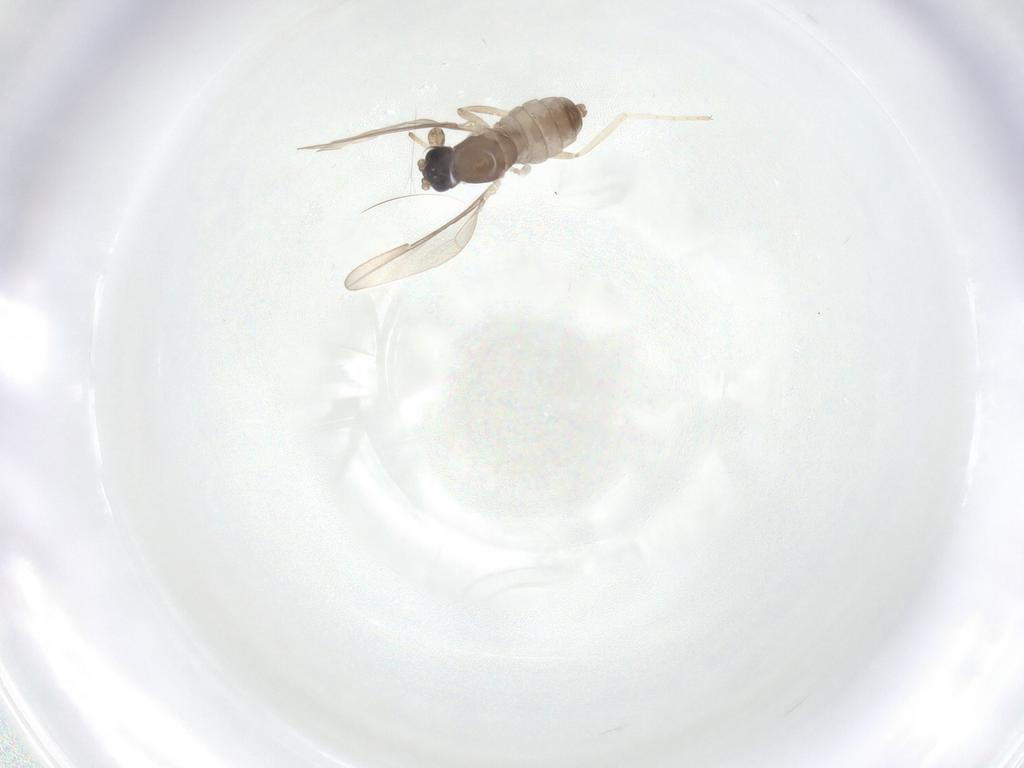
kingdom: Animalia
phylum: Arthropoda
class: Insecta
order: Diptera
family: Cecidomyiidae
